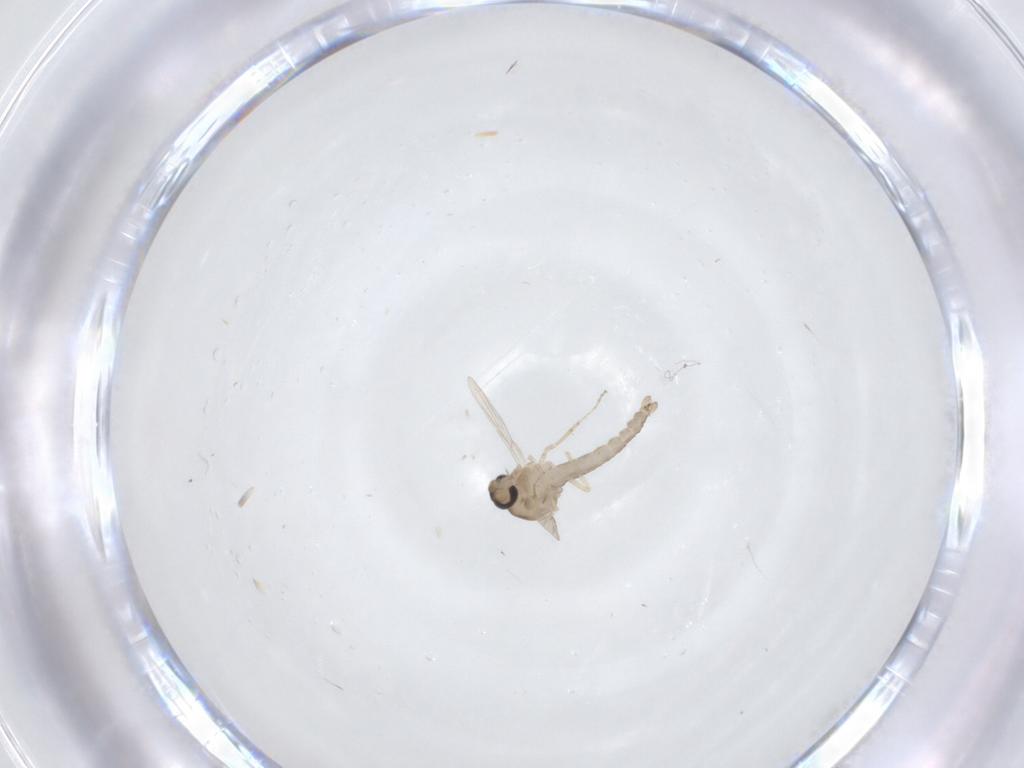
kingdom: Animalia
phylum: Arthropoda
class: Insecta
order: Diptera
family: Ceratopogonidae
